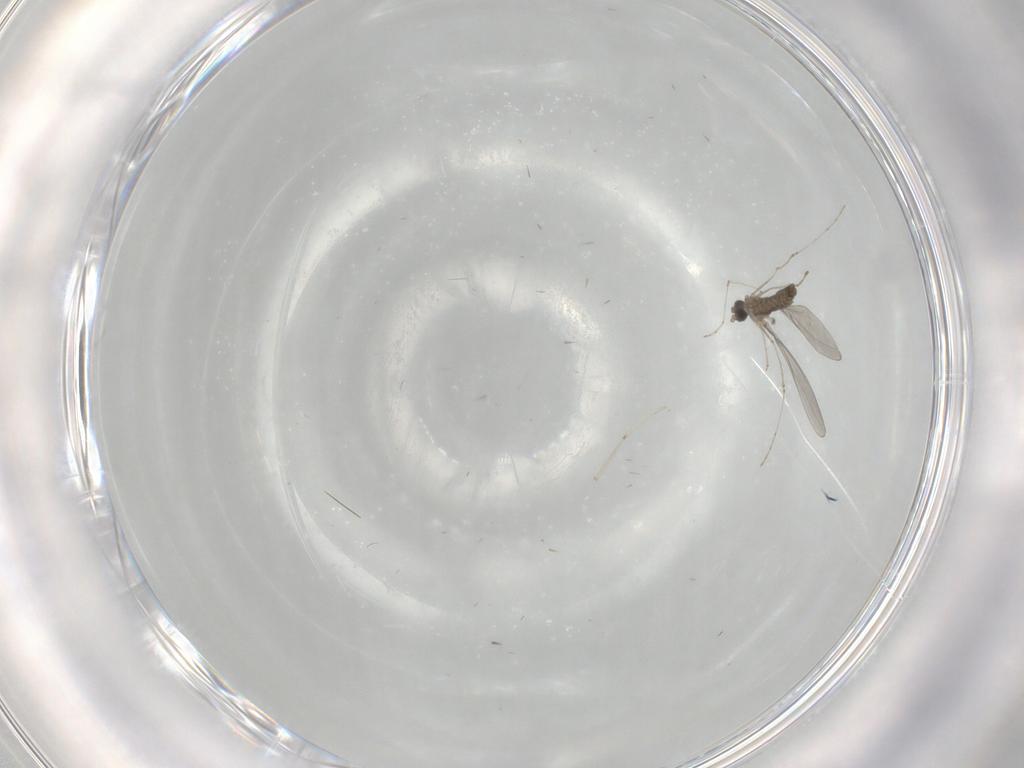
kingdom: Animalia
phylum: Arthropoda
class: Insecta
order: Diptera
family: Cecidomyiidae
